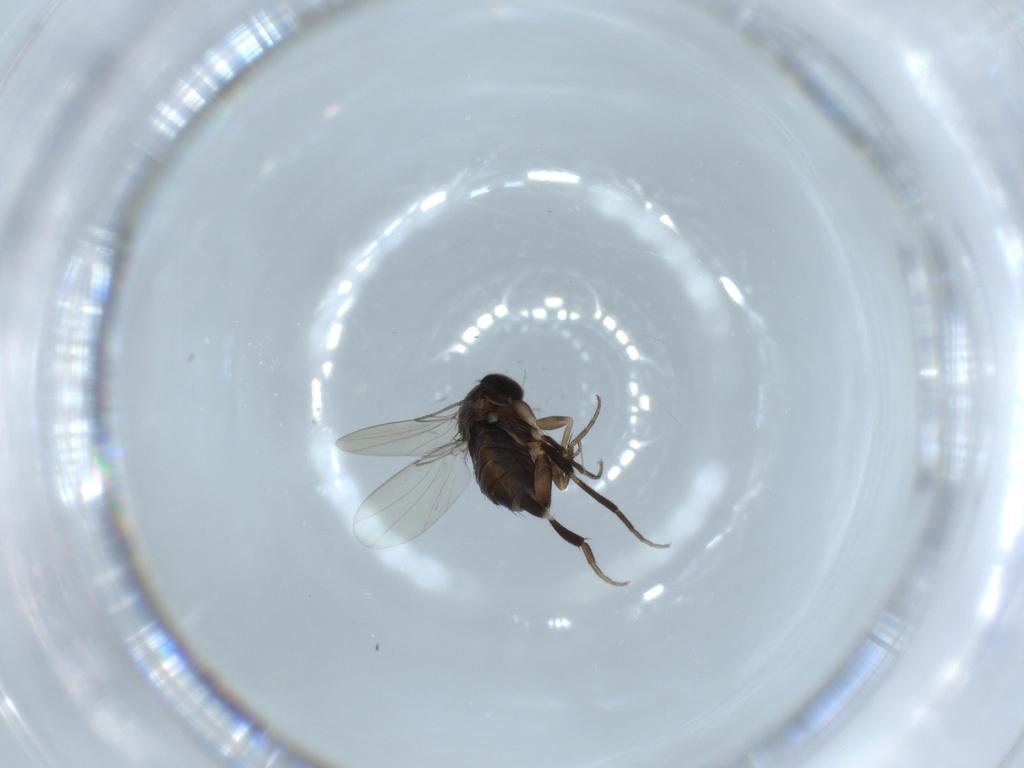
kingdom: Animalia
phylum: Arthropoda
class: Insecta
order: Diptera
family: Phoridae
